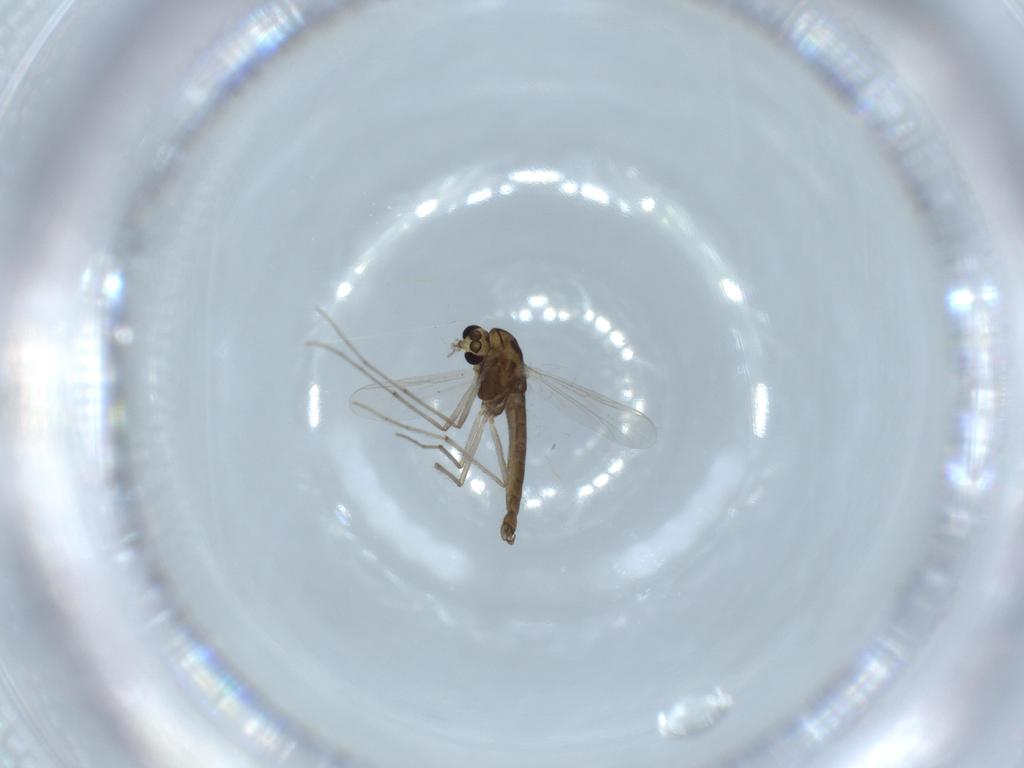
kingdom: Animalia
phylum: Arthropoda
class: Insecta
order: Diptera
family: Chironomidae
